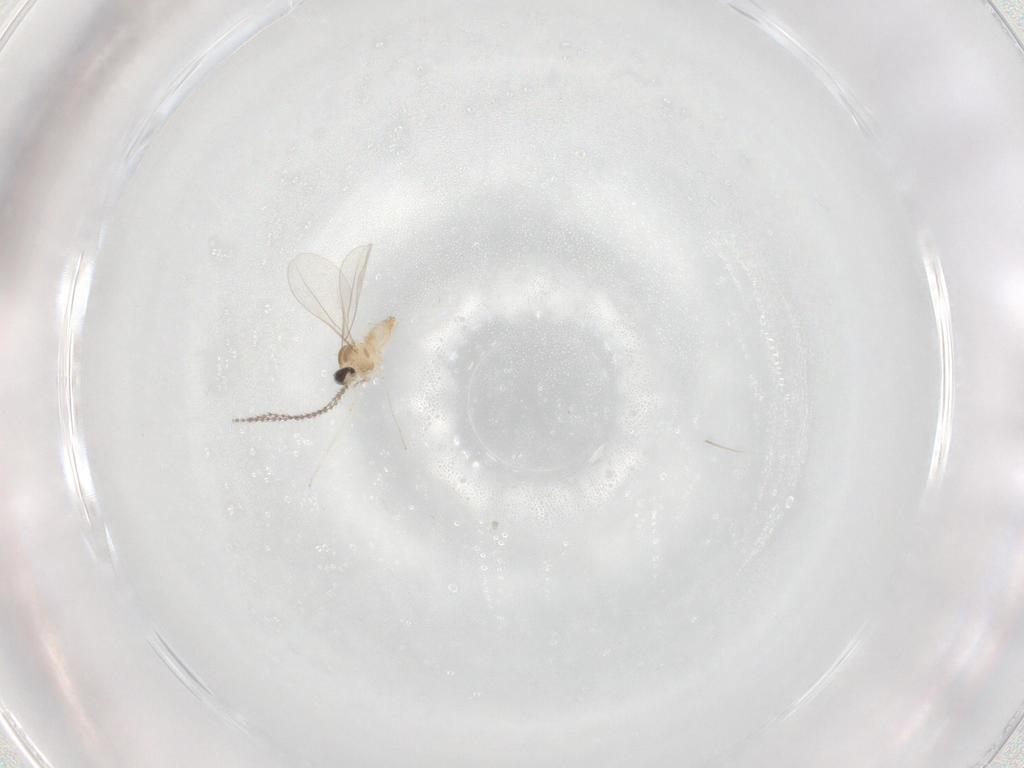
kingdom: Animalia
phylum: Arthropoda
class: Insecta
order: Diptera
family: Cecidomyiidae
